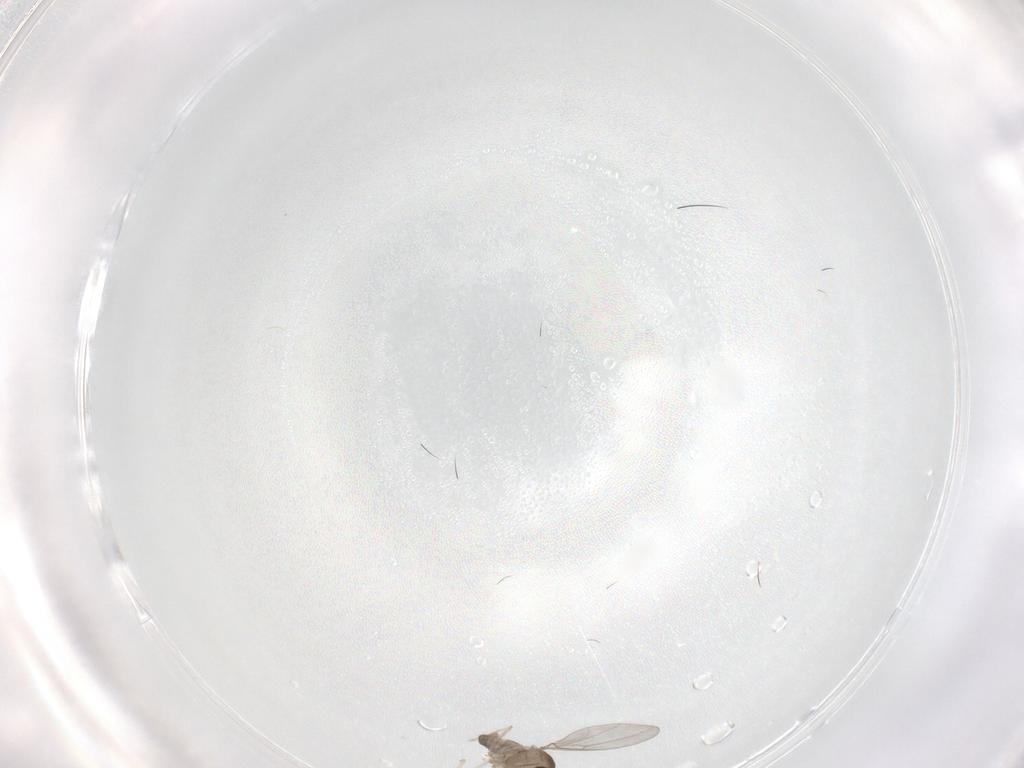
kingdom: Animalia
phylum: Arthropoda
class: Insecta
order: Diptera
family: Cecidomyiidae
